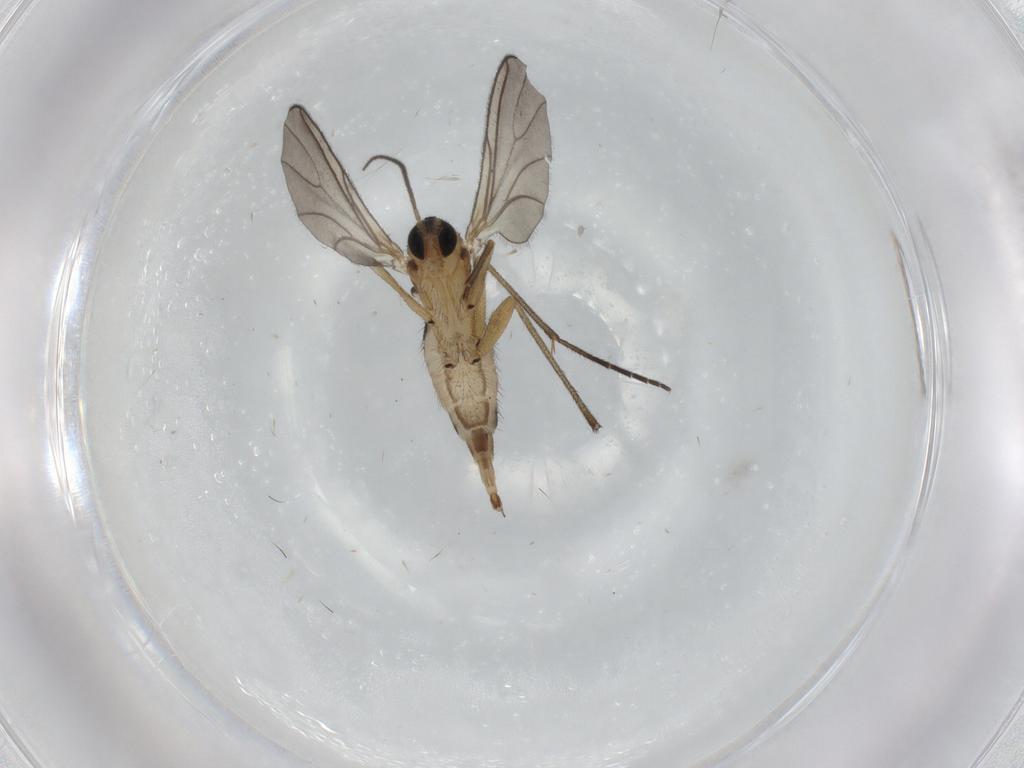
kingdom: Animalia
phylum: Arthropoda
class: Insecta
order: Diptera
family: Sciaridae
